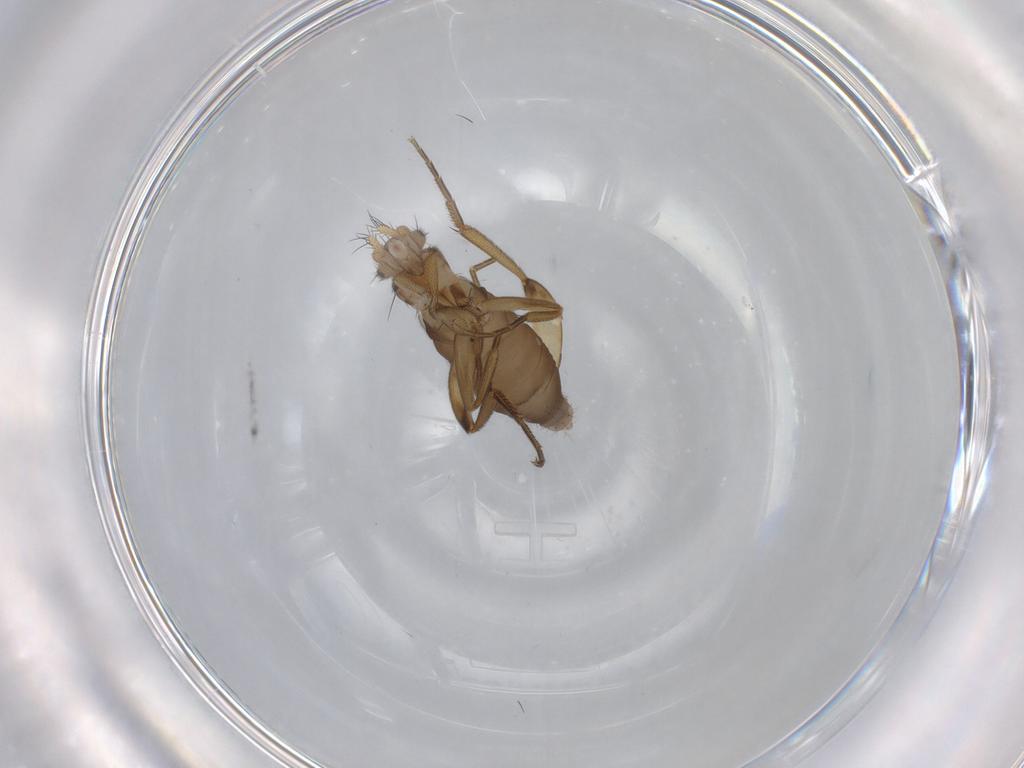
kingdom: Animalia
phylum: Arthropoda
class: Insecta
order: Diptera
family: Phoridae
